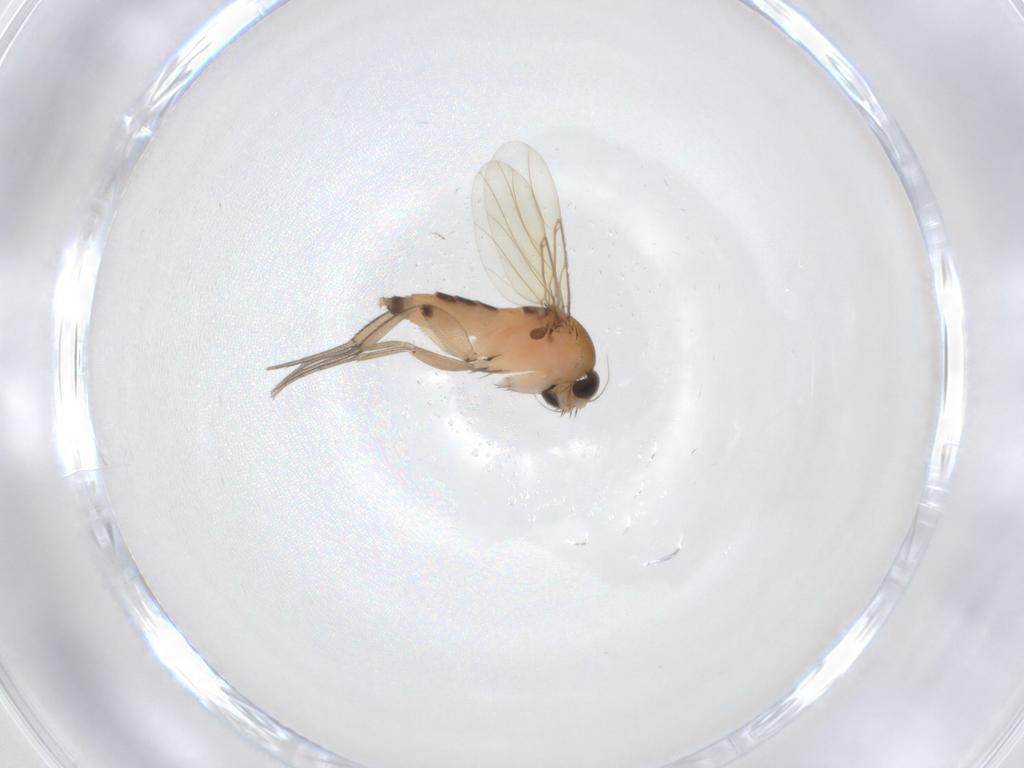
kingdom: Animalia
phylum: Arthropoda
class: Insecta
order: Diptera
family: Phoridae
